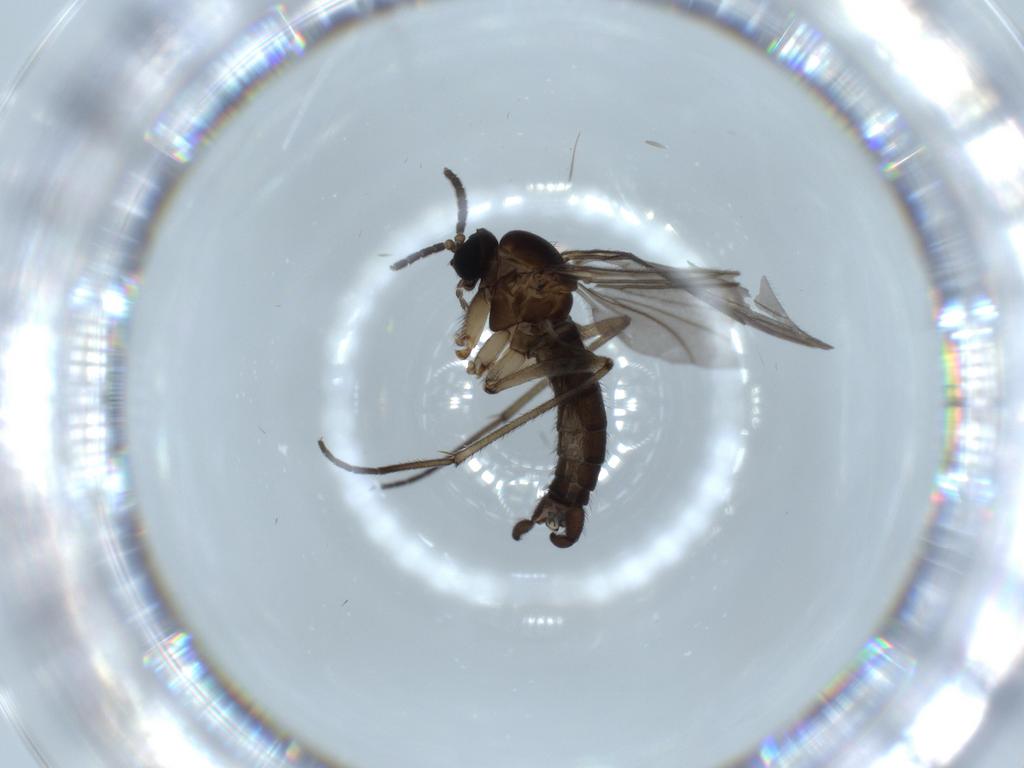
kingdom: Animalia
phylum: Arthropoda
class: Insecta
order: Diptera
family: Sciaridae
